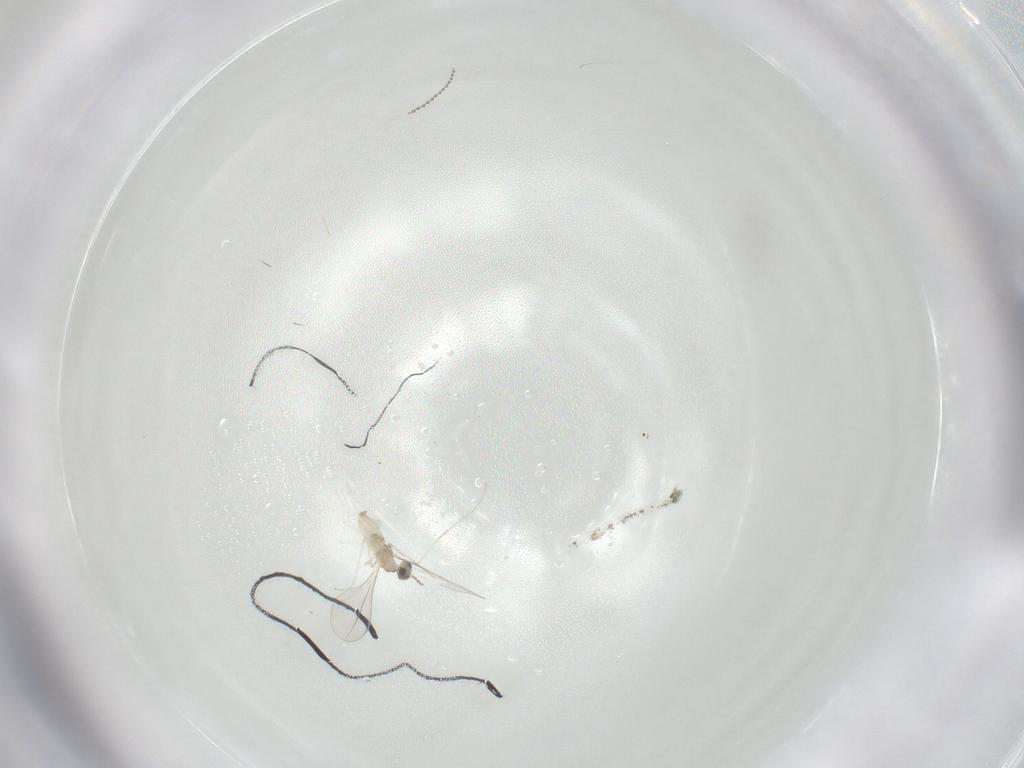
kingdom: Animalia
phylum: Arthropoda
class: Insecta
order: Diptera
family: Cecidomyiidae
